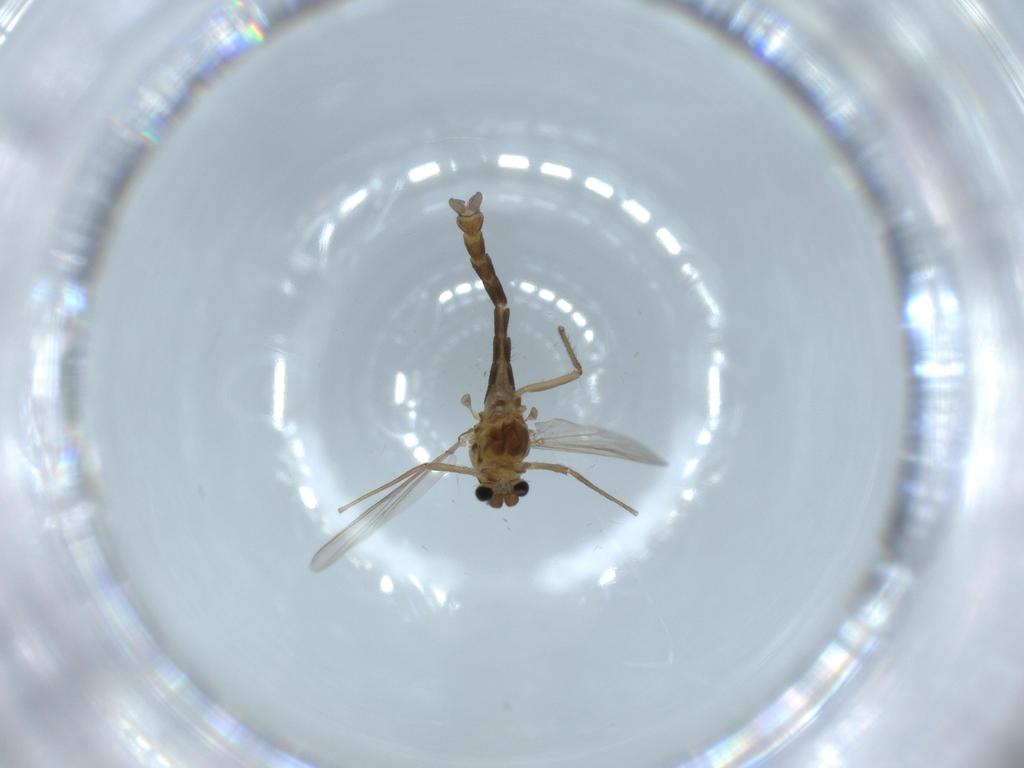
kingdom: Animalia
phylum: Arthropoda
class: Insecta
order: Diptera
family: Chironomidae
